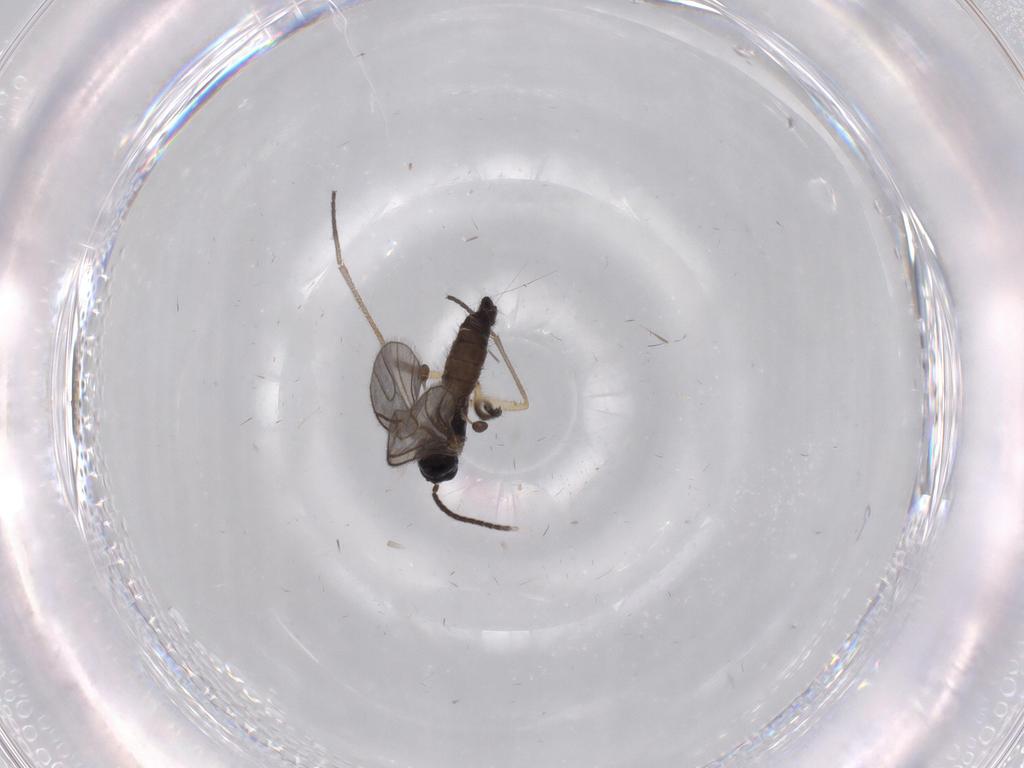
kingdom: Animalia
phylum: Arthropoda
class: Insecta
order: Diptera
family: Sciaridae
